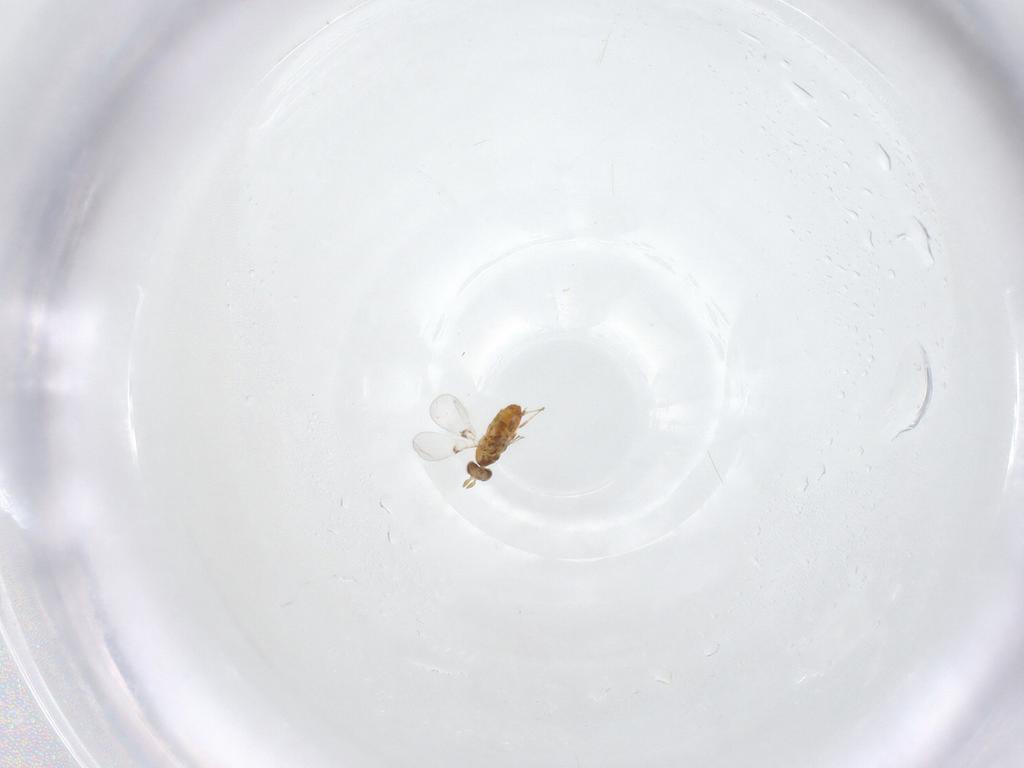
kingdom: Animalia
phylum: Arthropoda
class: Insecta
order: Hymenoptera
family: Trichogrammatidae
